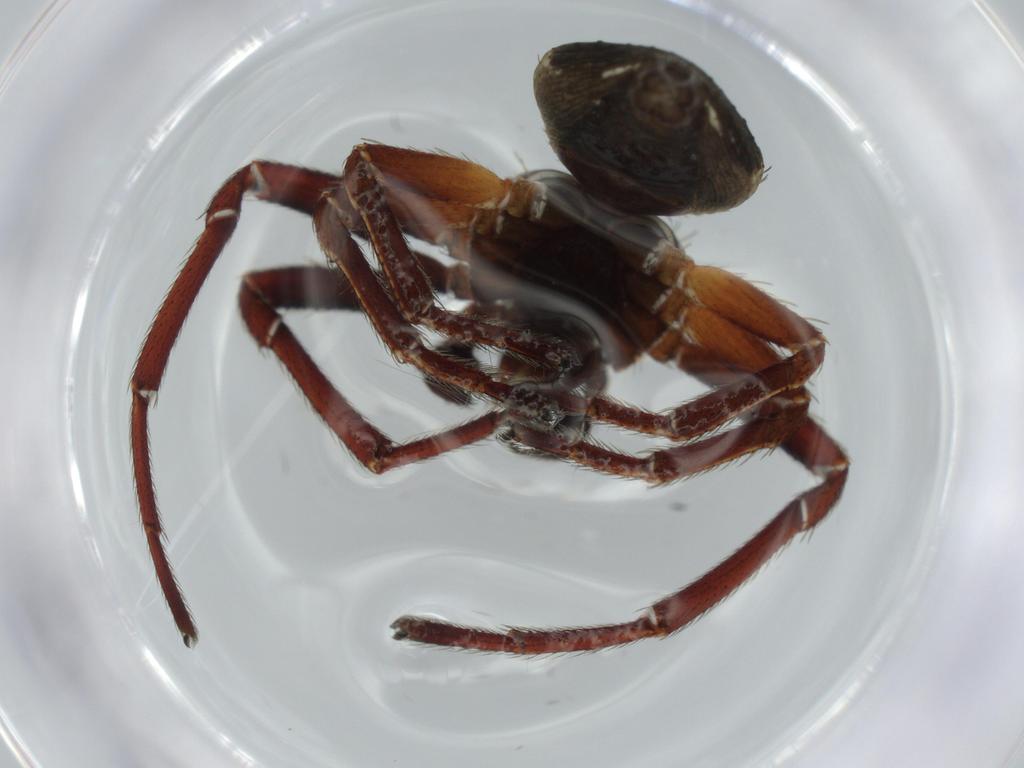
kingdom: Animalia
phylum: Arthropoda
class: Arachnida
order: Araneae
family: Thomisidae
